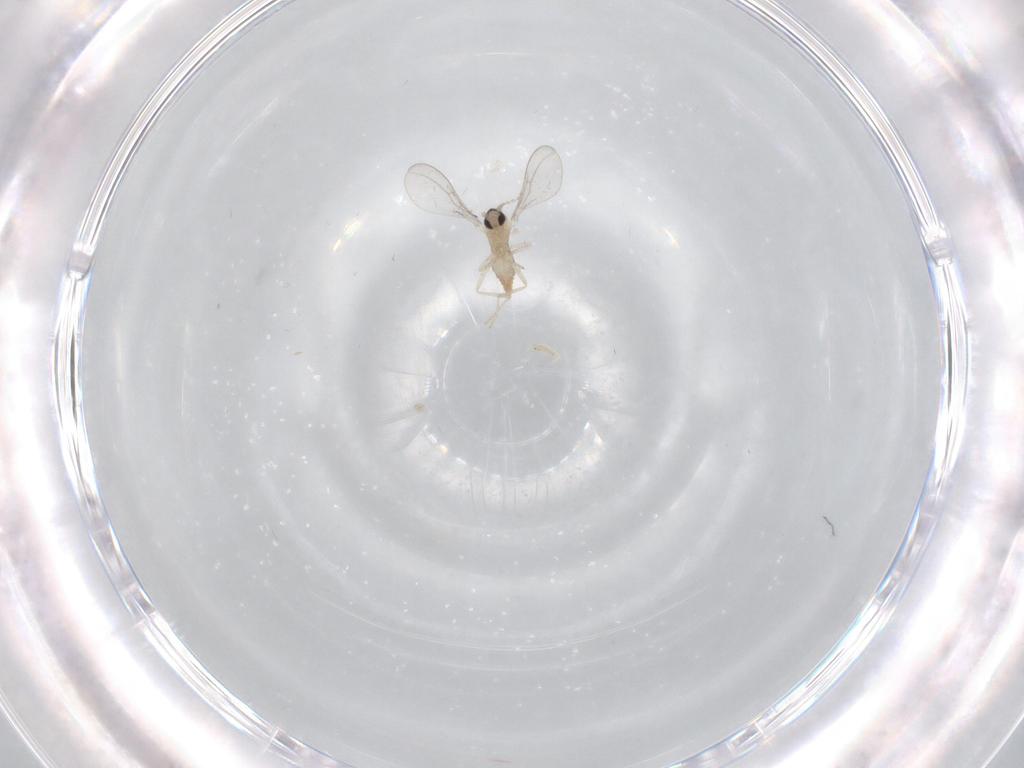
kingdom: Animalia
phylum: Arthropoda
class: Insecta
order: Diptera
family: Cecidomyiidae
